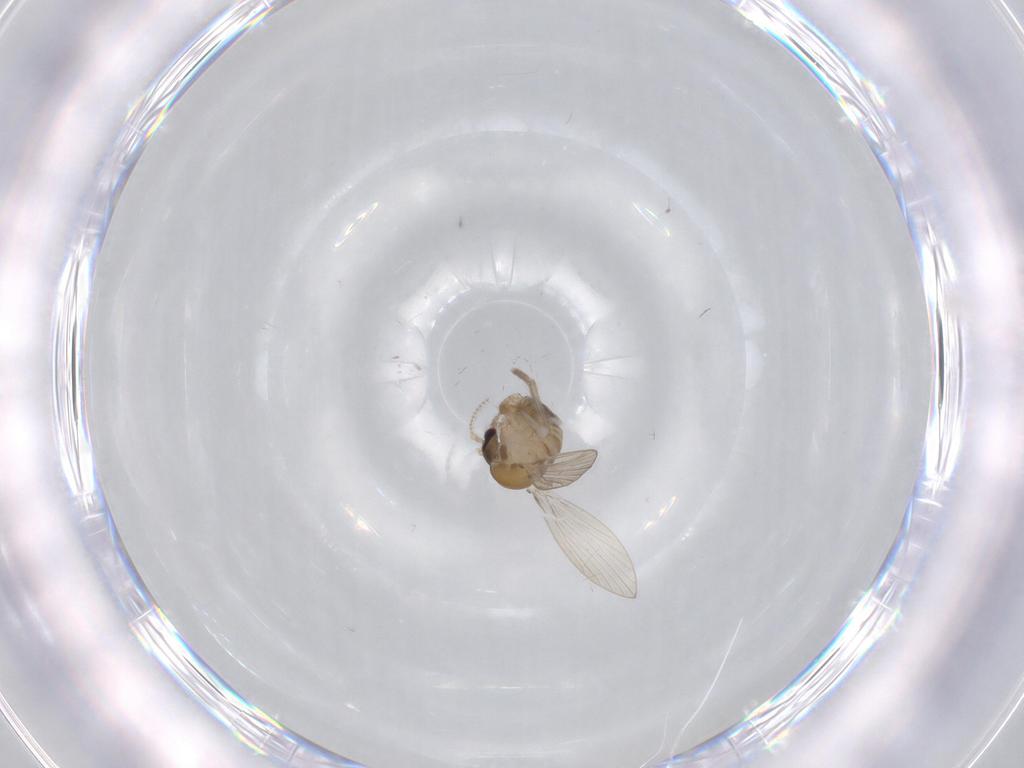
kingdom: Animalia
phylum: Arthropoda
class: Insecta
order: Diptera
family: Psychodidae
